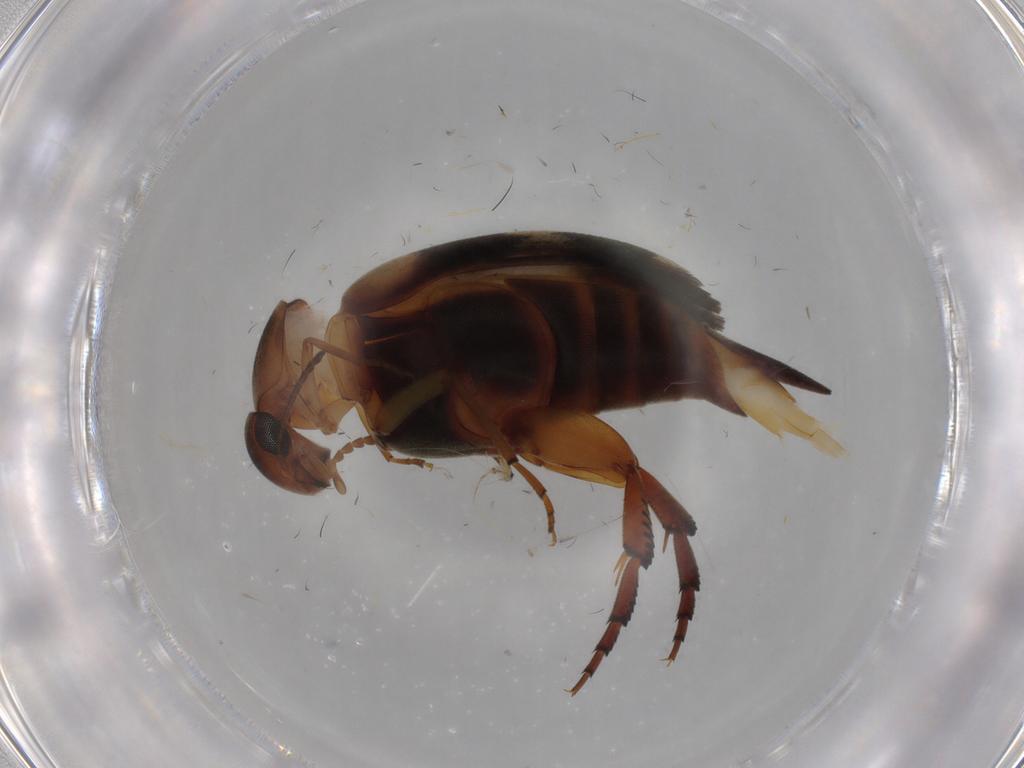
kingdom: Animalia
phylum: Arthropoda
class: Insecta
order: Coleoptera
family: Mordellidae
